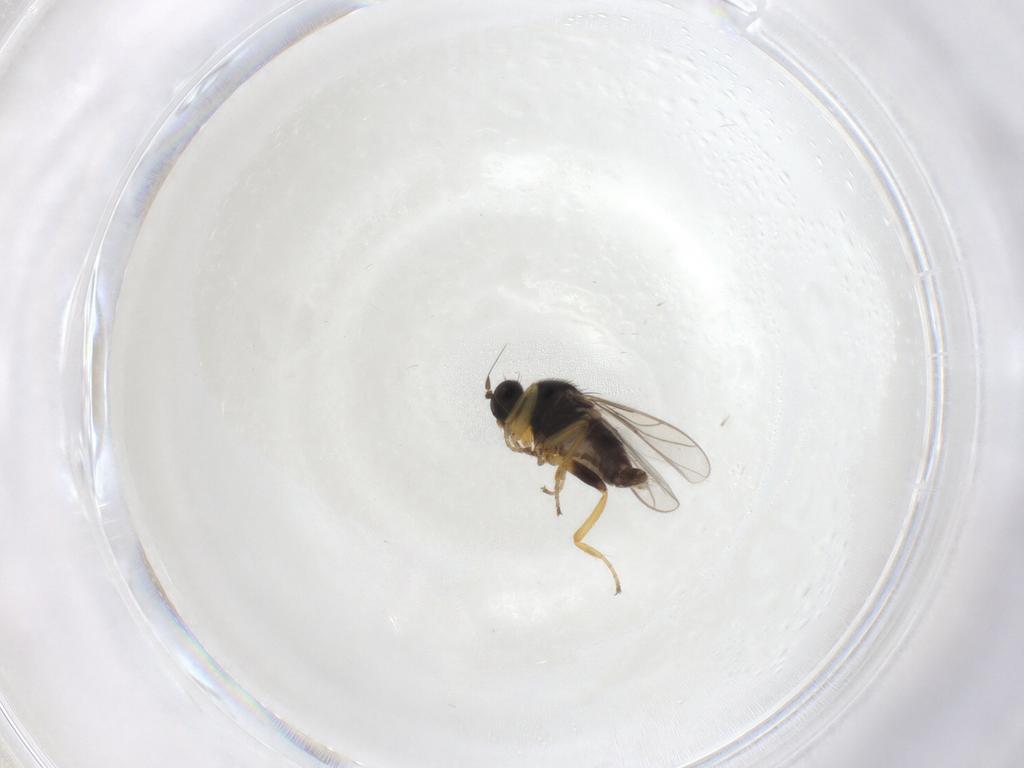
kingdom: Animalia
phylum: Arthropoda
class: Insecta
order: Diptera
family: Hybotidae
